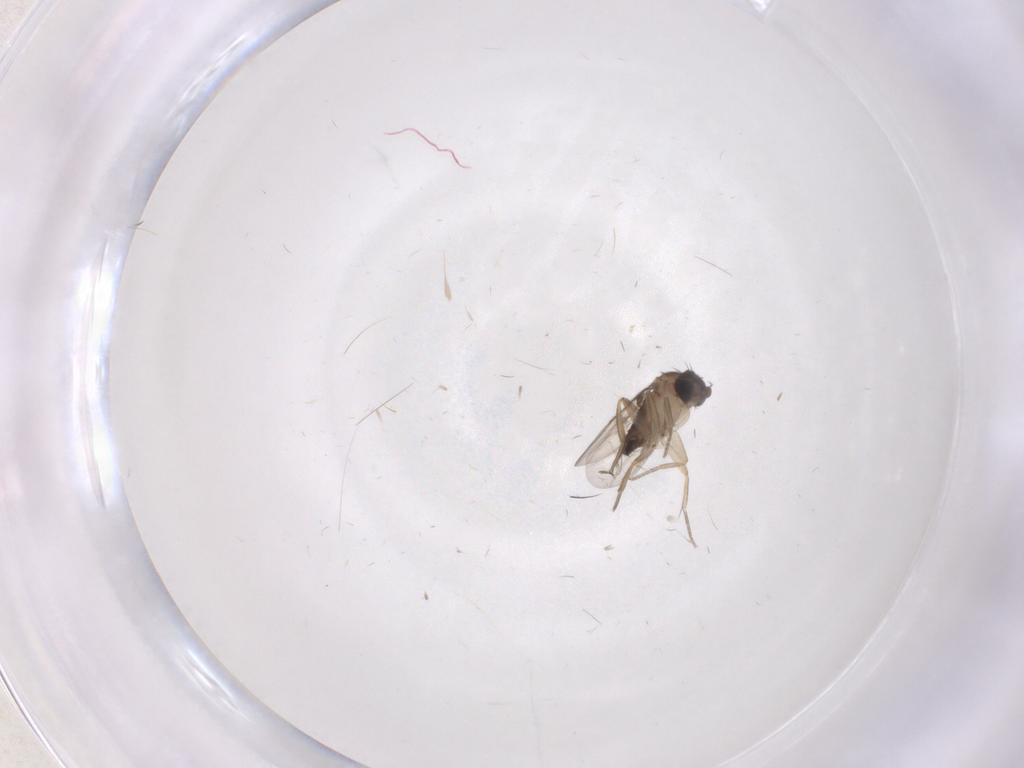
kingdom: Animalia
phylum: Arthropoda
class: Insecta
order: Diptera
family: Phoridae
